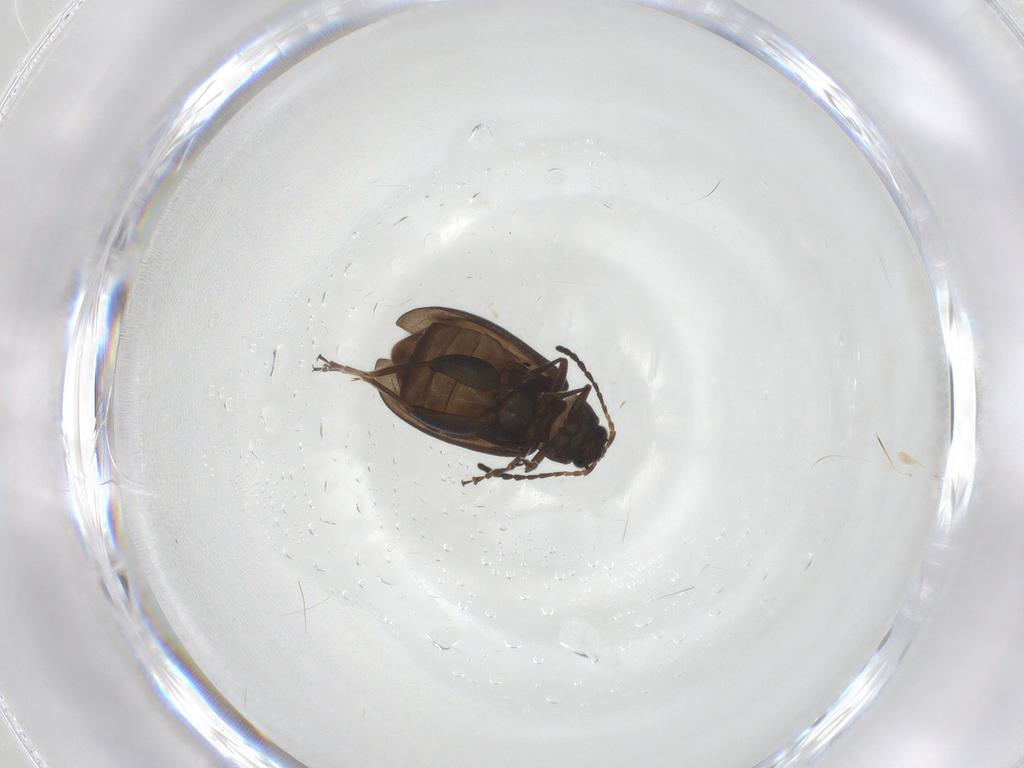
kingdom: Animalia
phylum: Arthropoda
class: Insecta
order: Coleoptera
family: Chrysomelidae
